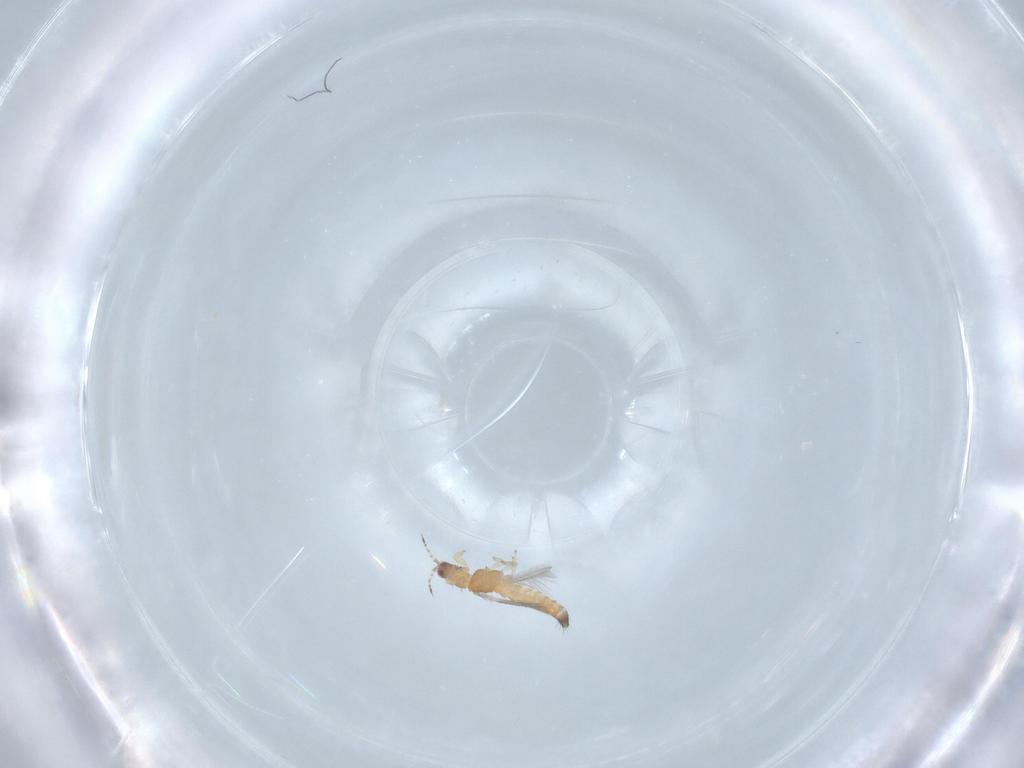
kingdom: Animalia
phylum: Arthropoda
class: Insecta
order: Thysanoptera
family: Thripidae
